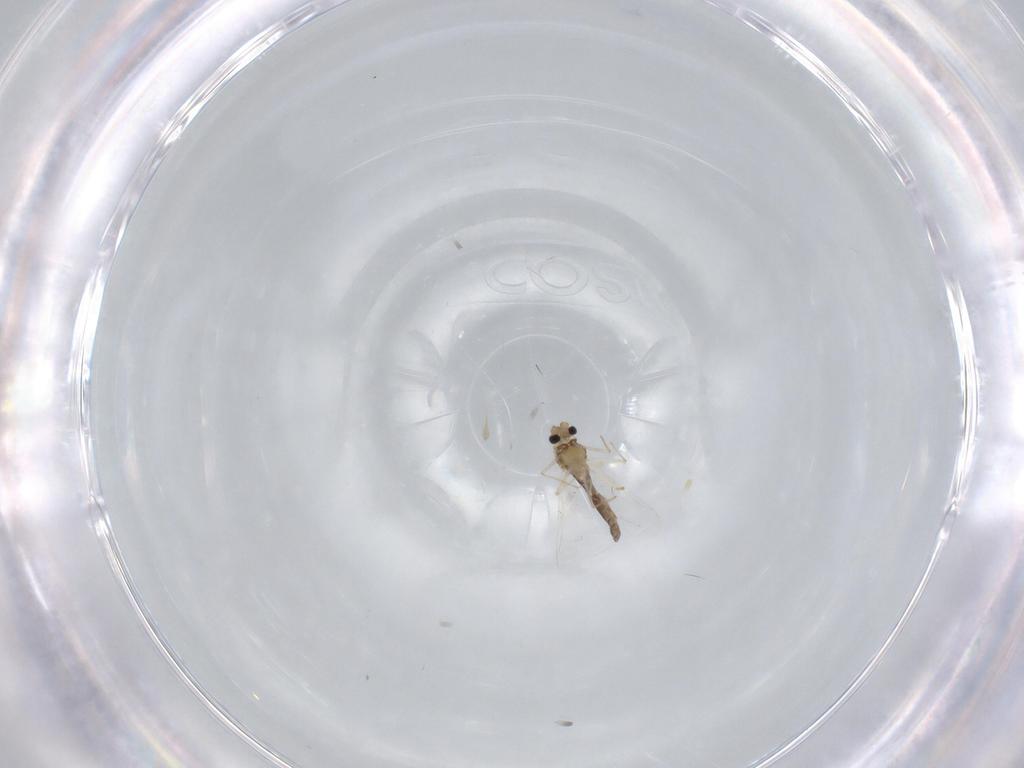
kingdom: Animalia
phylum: Arthropoda
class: Insecta
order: Diptera
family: Chironomidae
